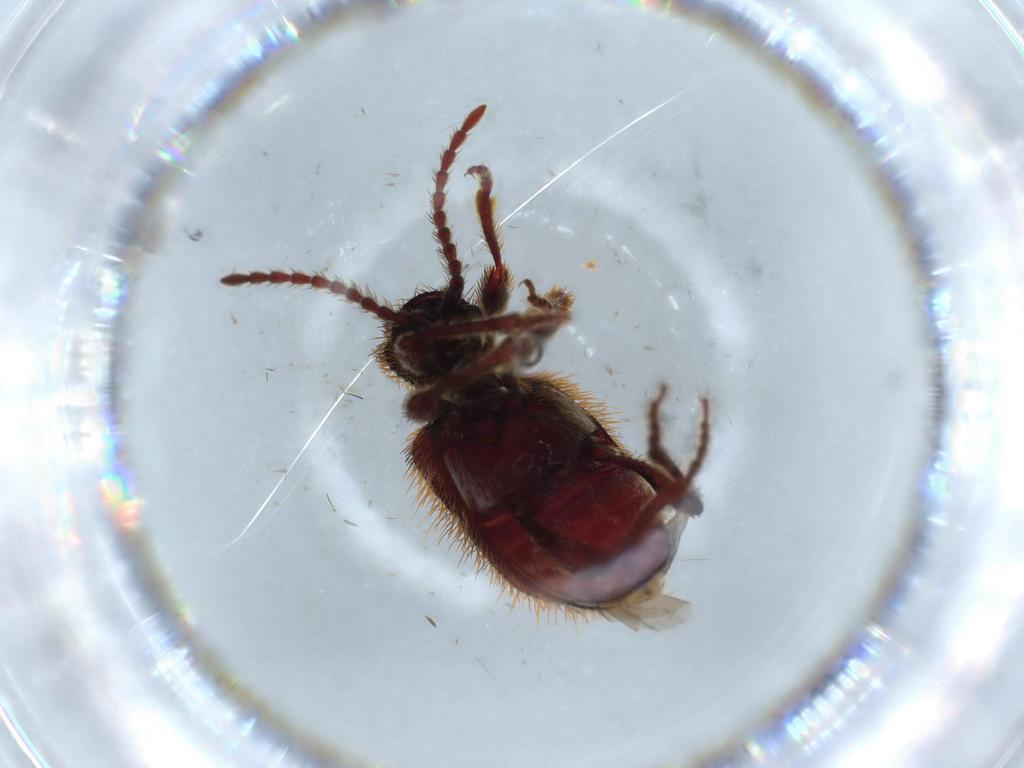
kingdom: Animalia
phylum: Arthropoda
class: Insecta
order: Coleoptera
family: Ptinidae
